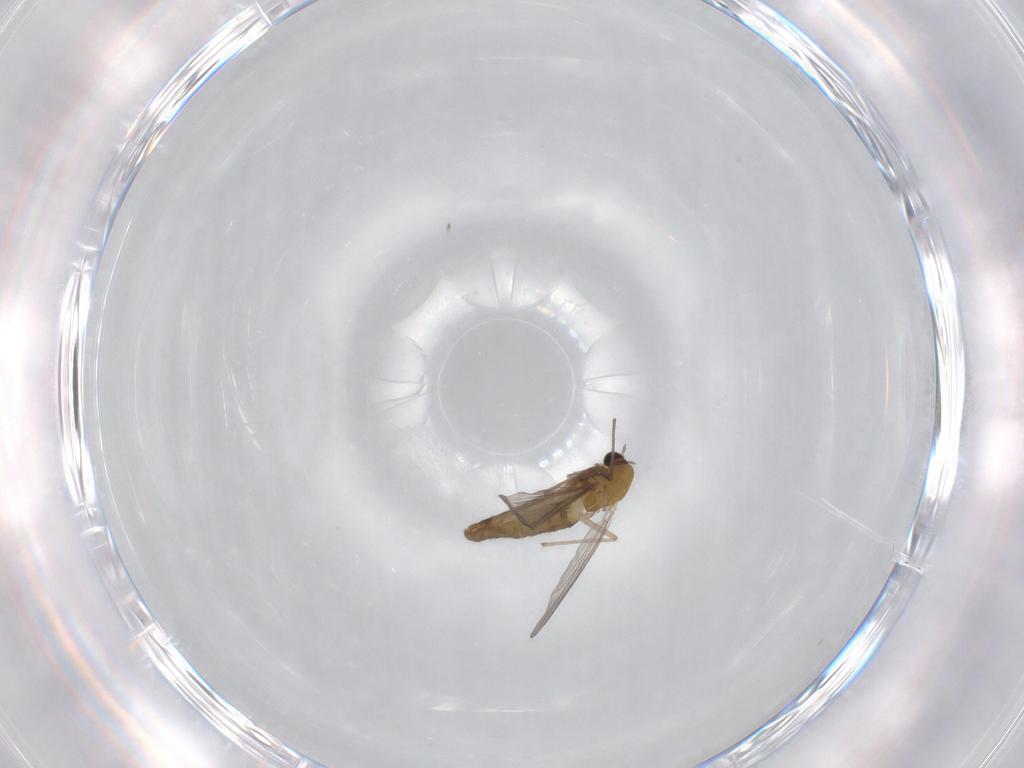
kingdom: Animalia
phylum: Arthropoda
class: Insecta
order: Diptera
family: Chironomidae
